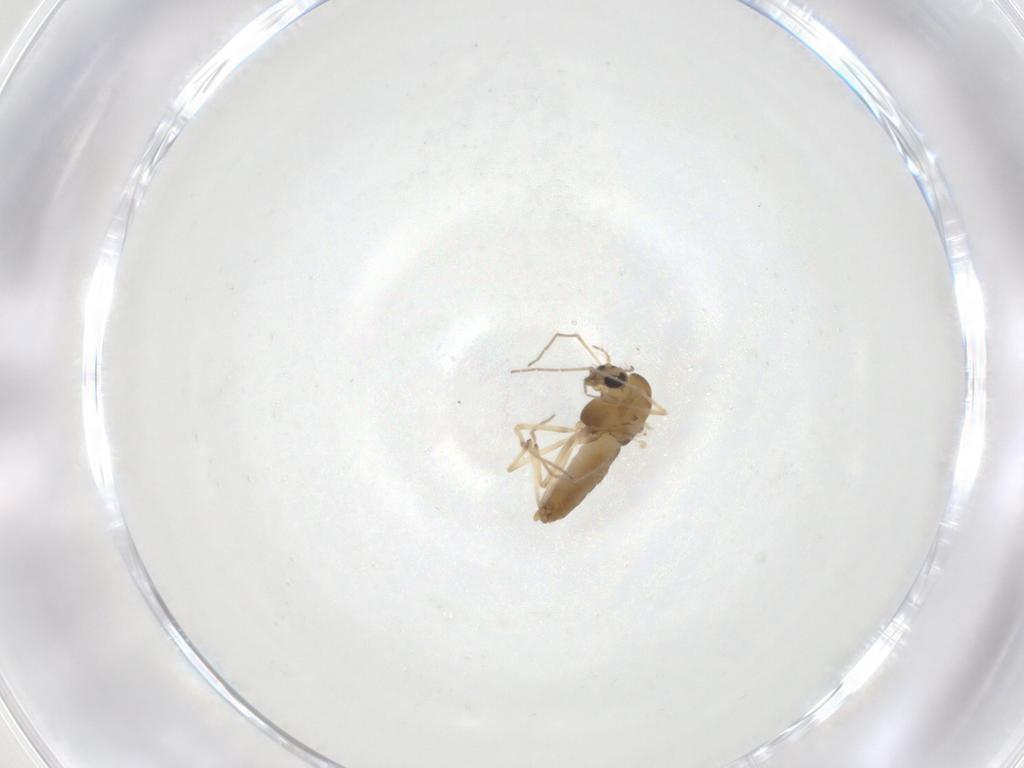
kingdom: Animalia
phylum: Arthropoda
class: Insecta
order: Diptera
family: Chironomidae
